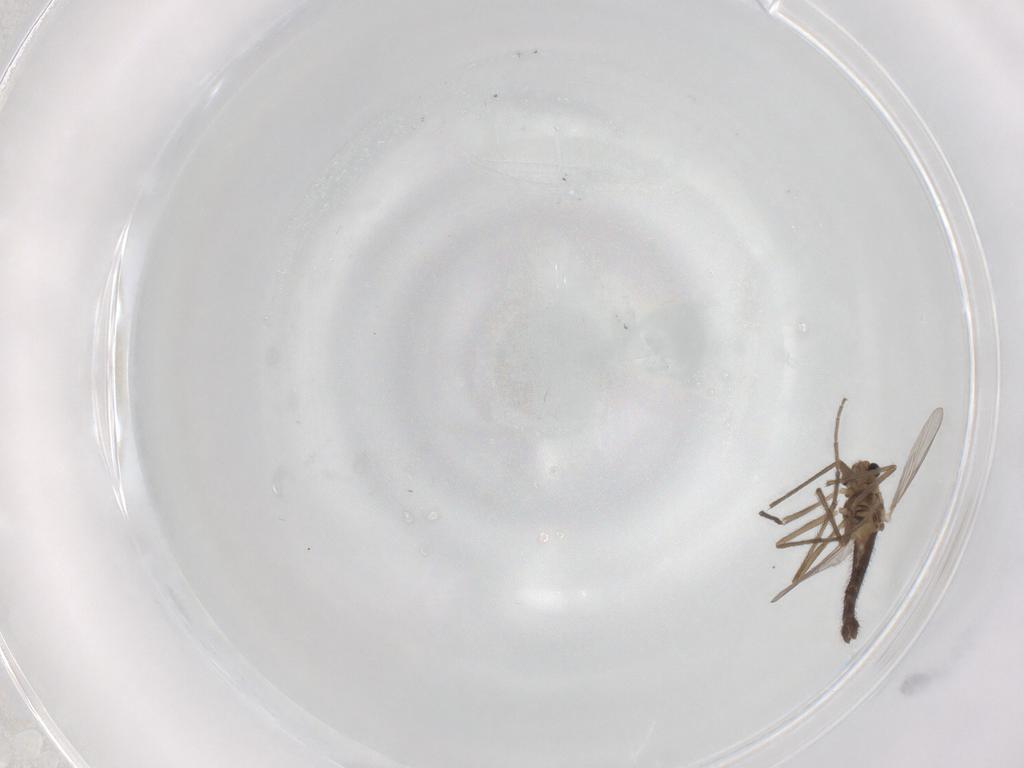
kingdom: Animalia
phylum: Arthropoda
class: Insecta
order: Diptera
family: Chironomidae
